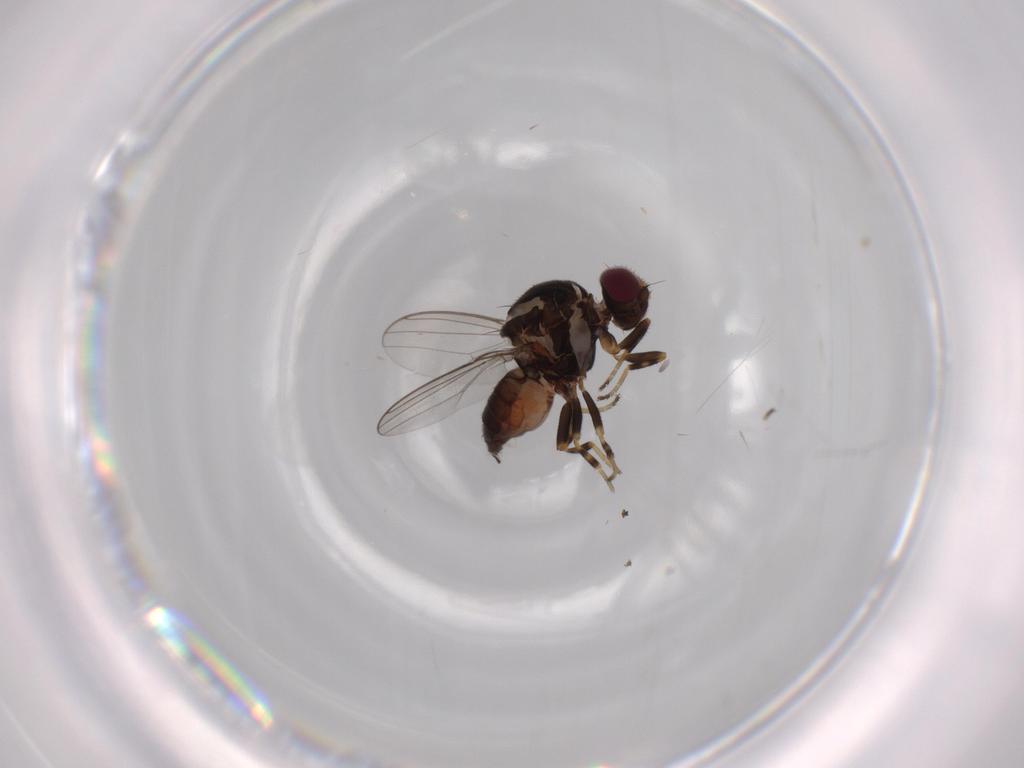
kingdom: Animalia
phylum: Arthropoda
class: Insecta
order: Diptera
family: Chloropidae
